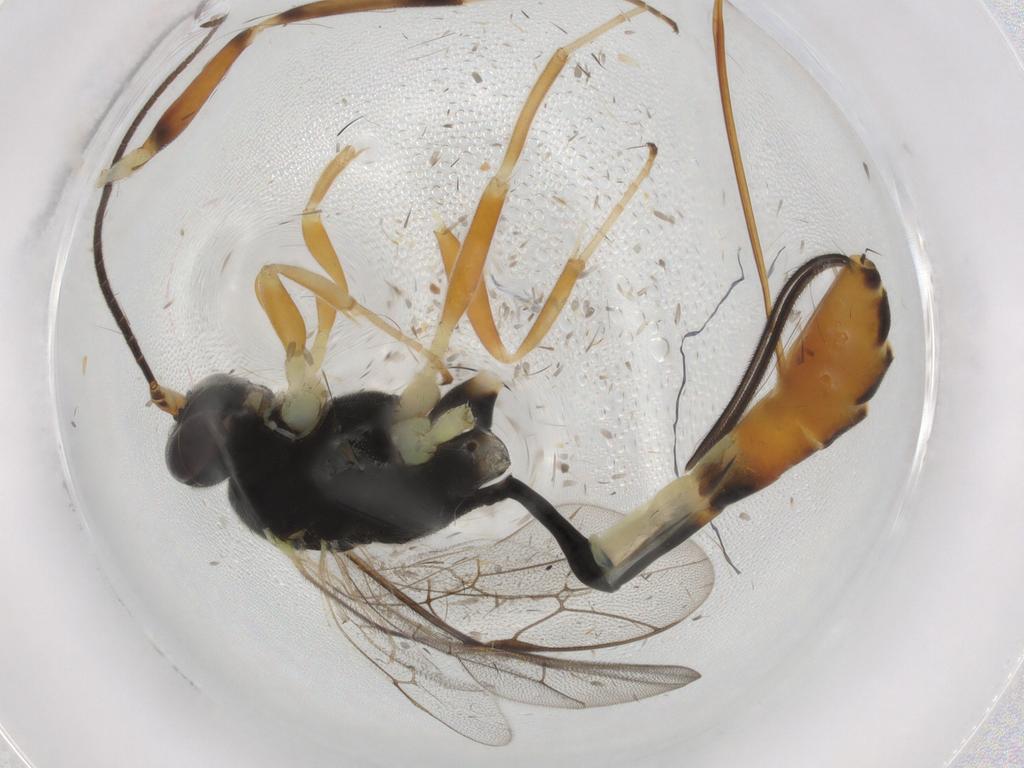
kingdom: Animalia
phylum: Arthropoda
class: Insecta
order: Hymenoptera
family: Ichneumonidae
